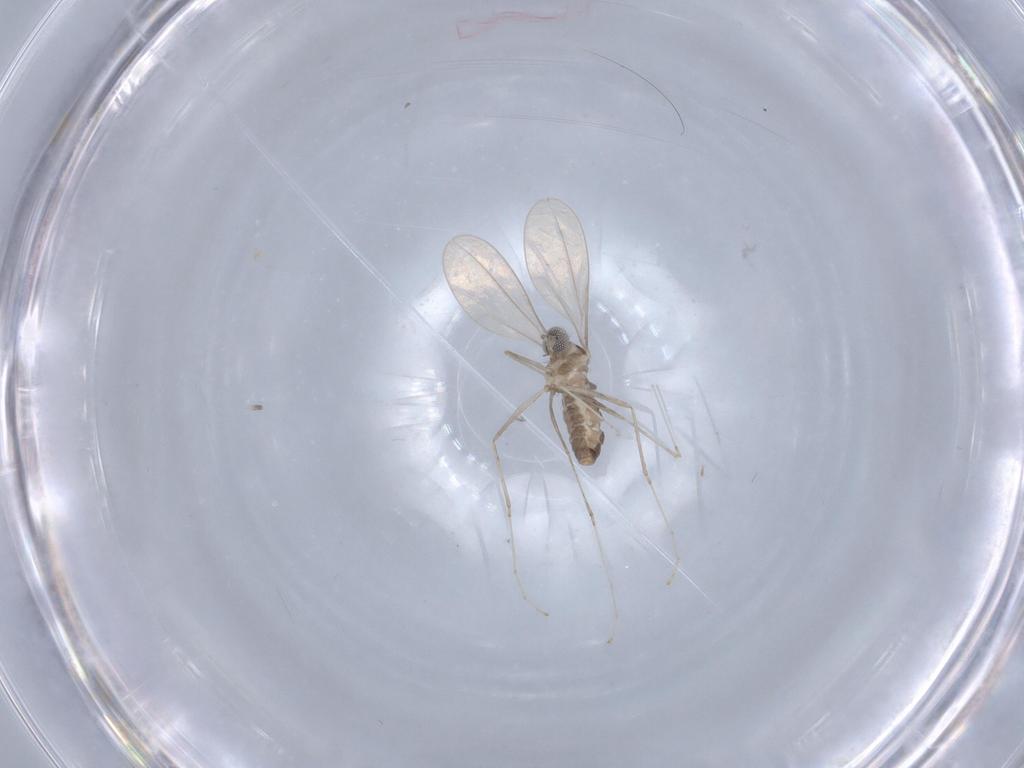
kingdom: Animalia
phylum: Arthropoda
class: Insecta
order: Diptera
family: Cecidomyiidae
